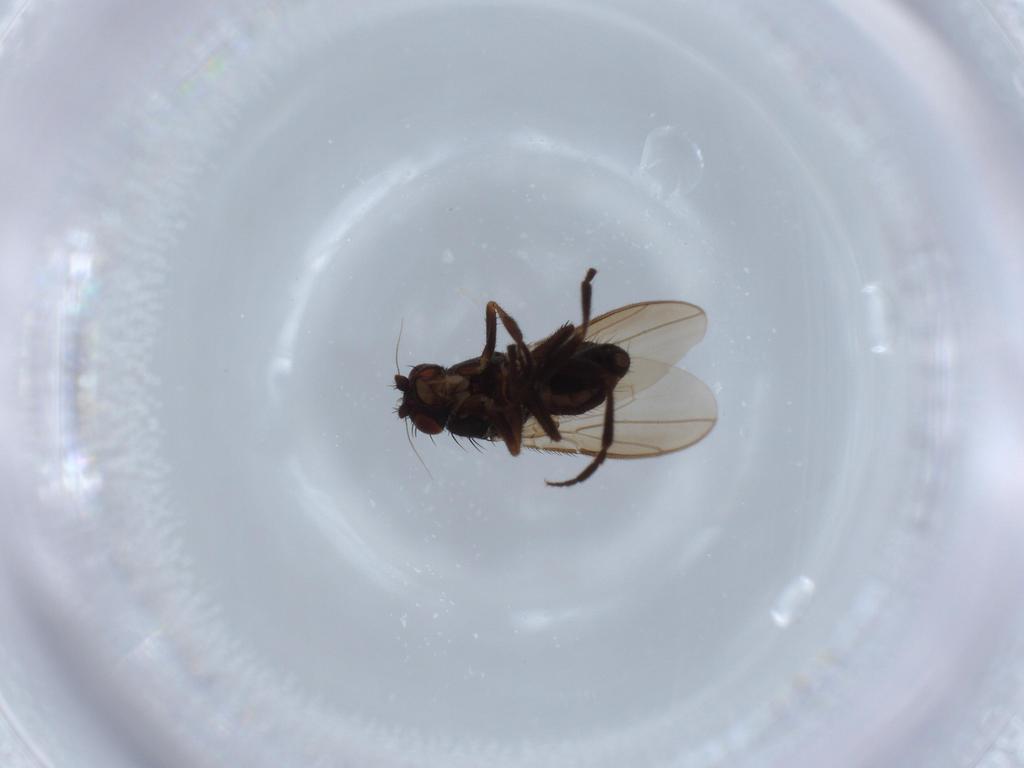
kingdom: Animalia
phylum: Arthropoda
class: Insecta
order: Diptera
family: Sphaeroceridae
